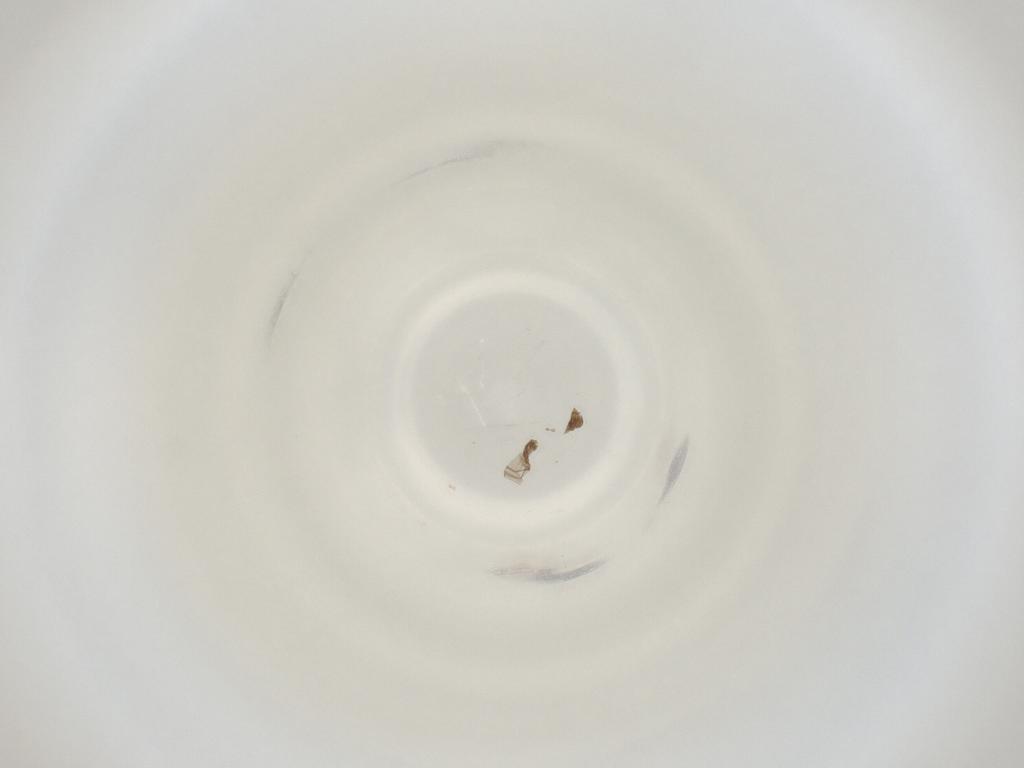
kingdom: Animalia
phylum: Arthropoda
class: Insecta
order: Diptera
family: Cecidomyiidae
